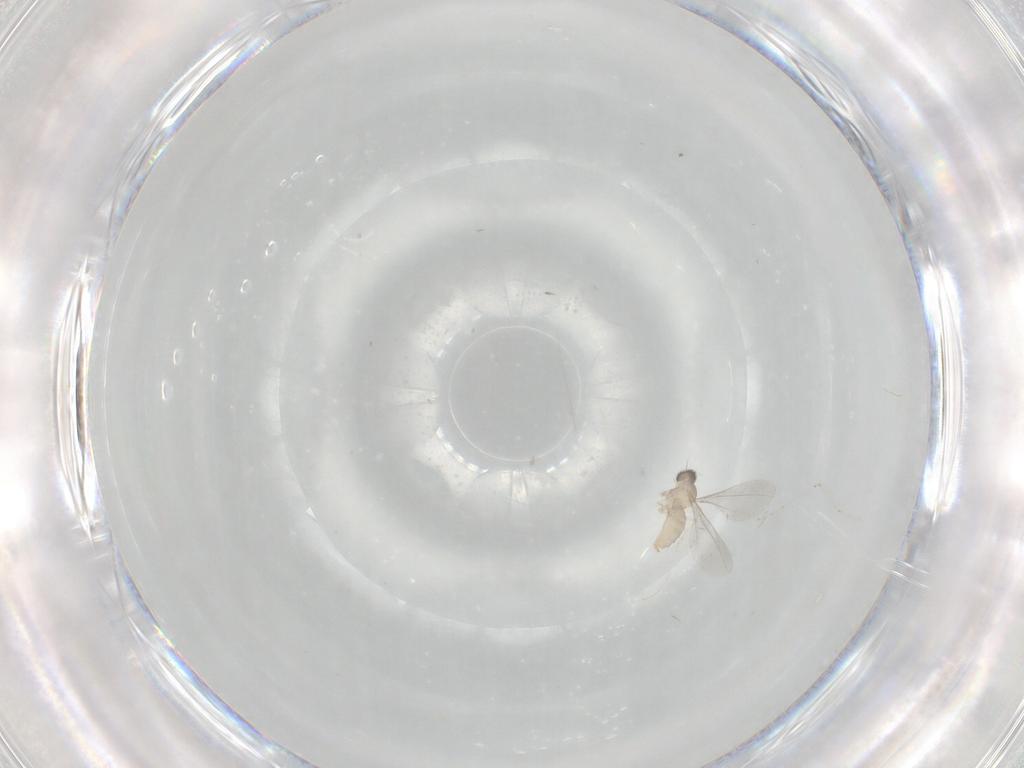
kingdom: Animalia
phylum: Arthropoda
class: Insecta
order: Diptera
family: Cecidomyiidae
